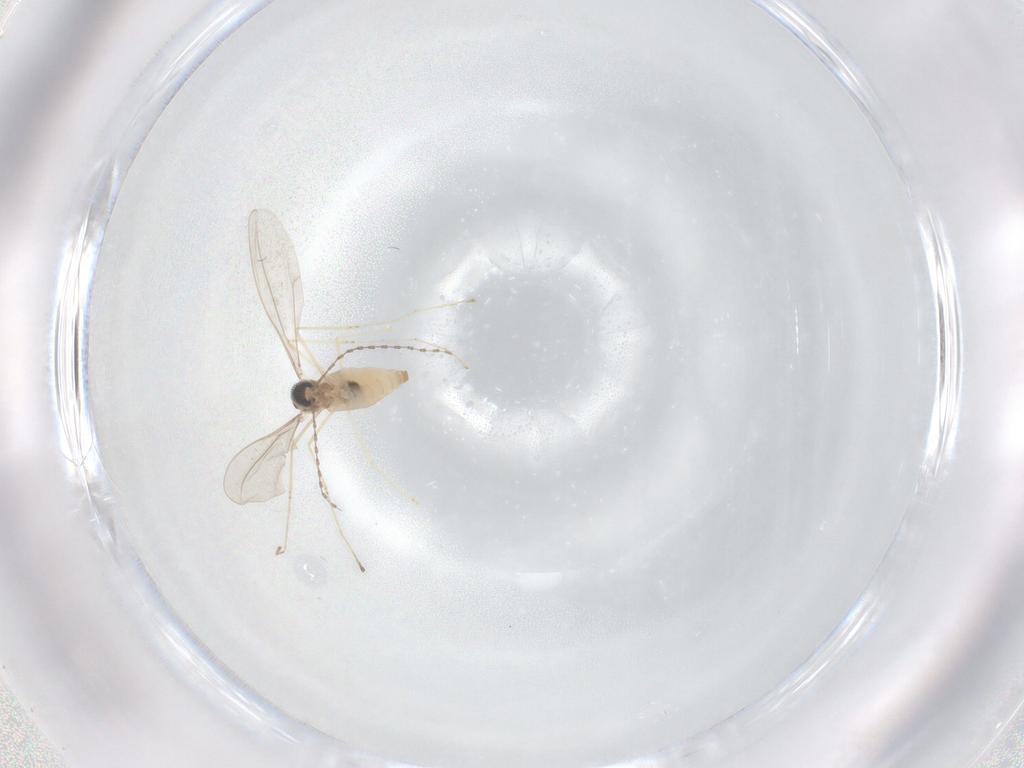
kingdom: Animalia
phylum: Arthropoda
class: Insecta
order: Diptera
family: Cecidomyiidae
